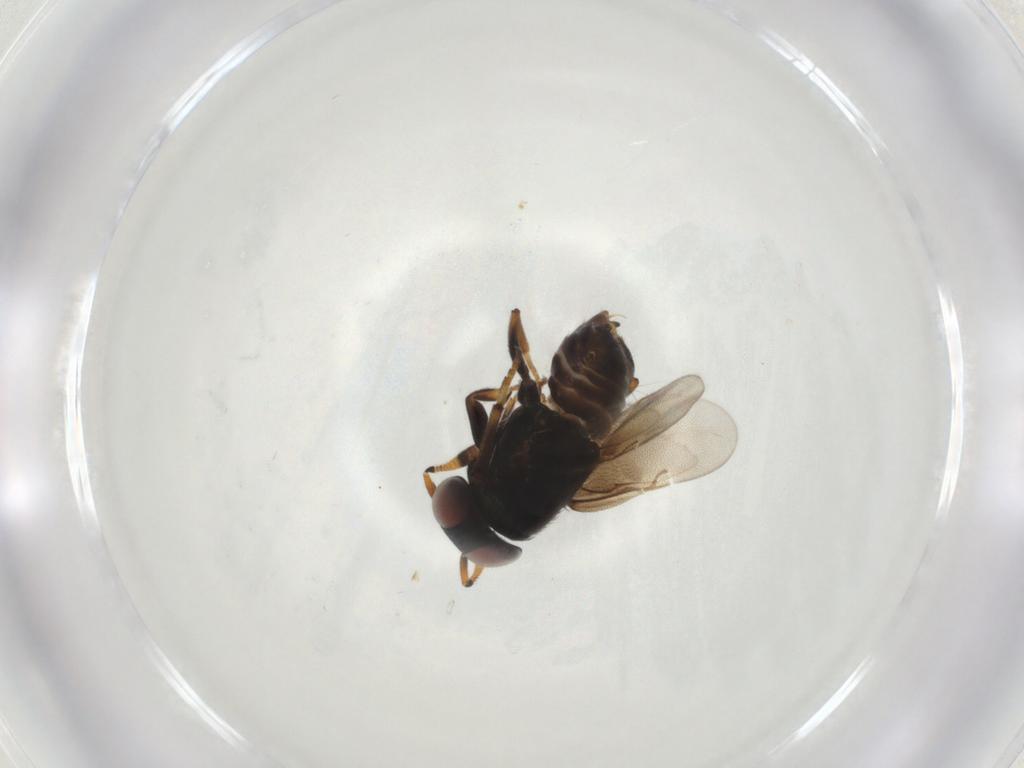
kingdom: Animalia
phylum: Arthropoda
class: Insecta
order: Hymenoptera
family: Encyrtidae
